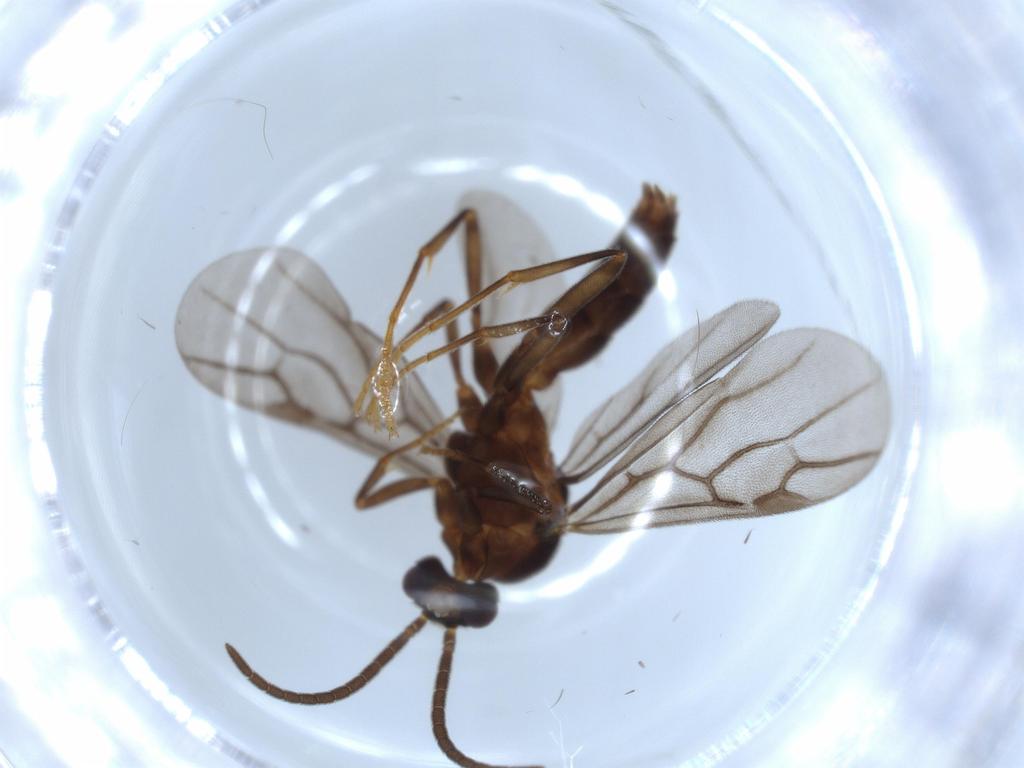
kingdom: Animalia
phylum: Arthropoda
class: Insecta
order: Hymenoptera
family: Formicidae
